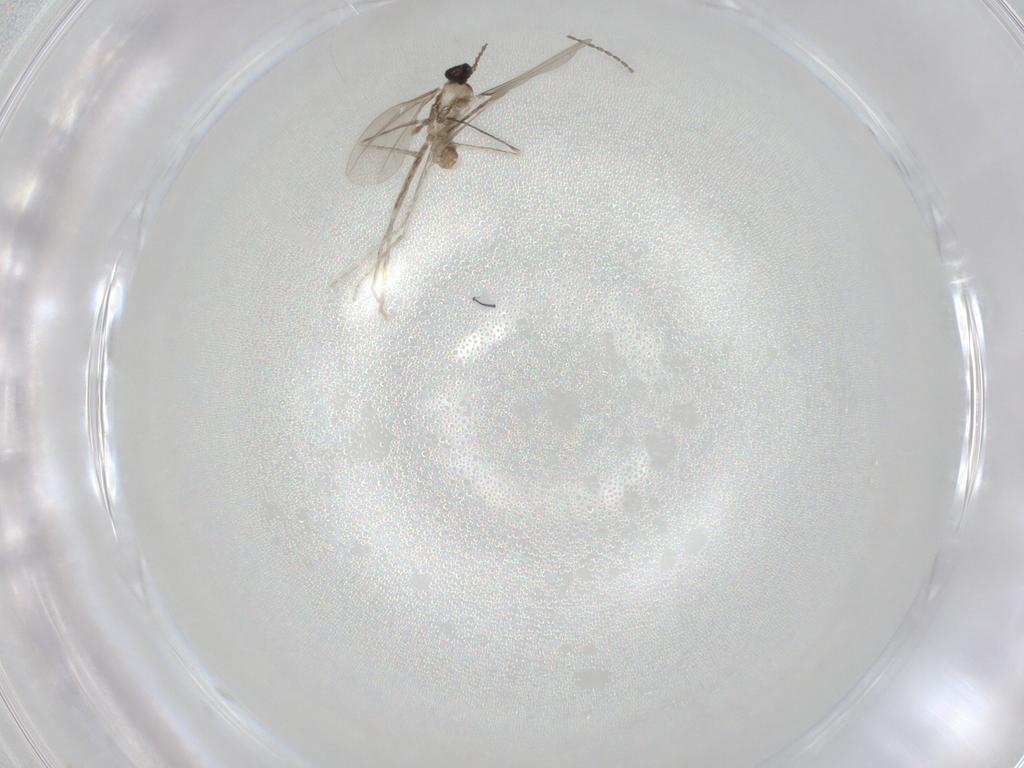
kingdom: Animalia
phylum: Arthropoda
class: Insecta
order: Diptera
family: Cecidomyiidae
